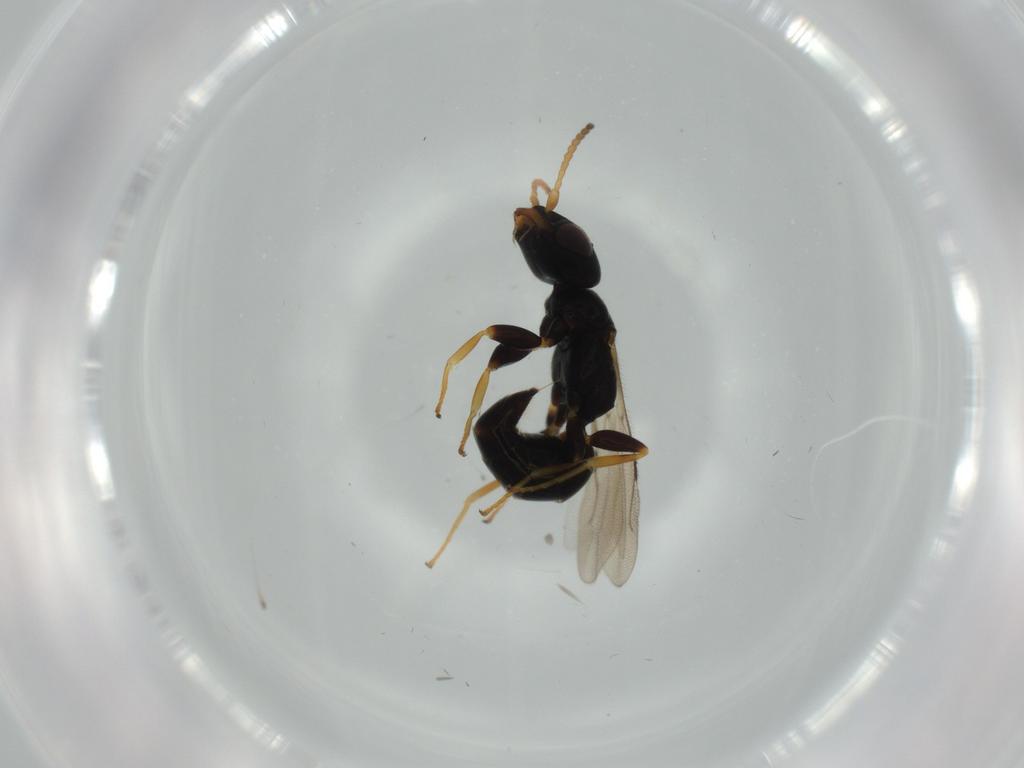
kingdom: Animalia
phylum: Arthropoda
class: Insecta
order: Hymenoptera
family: Bethylidae
